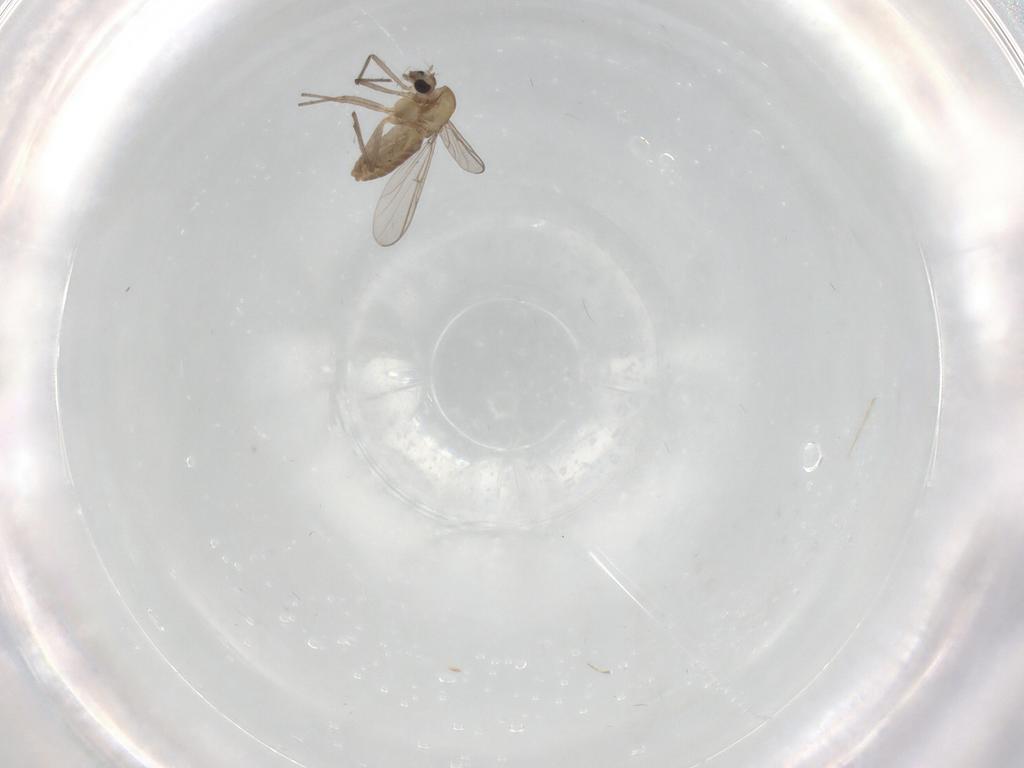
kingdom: Animalia
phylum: Arthropoda
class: Insecta
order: Diptera
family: Chironomidae
